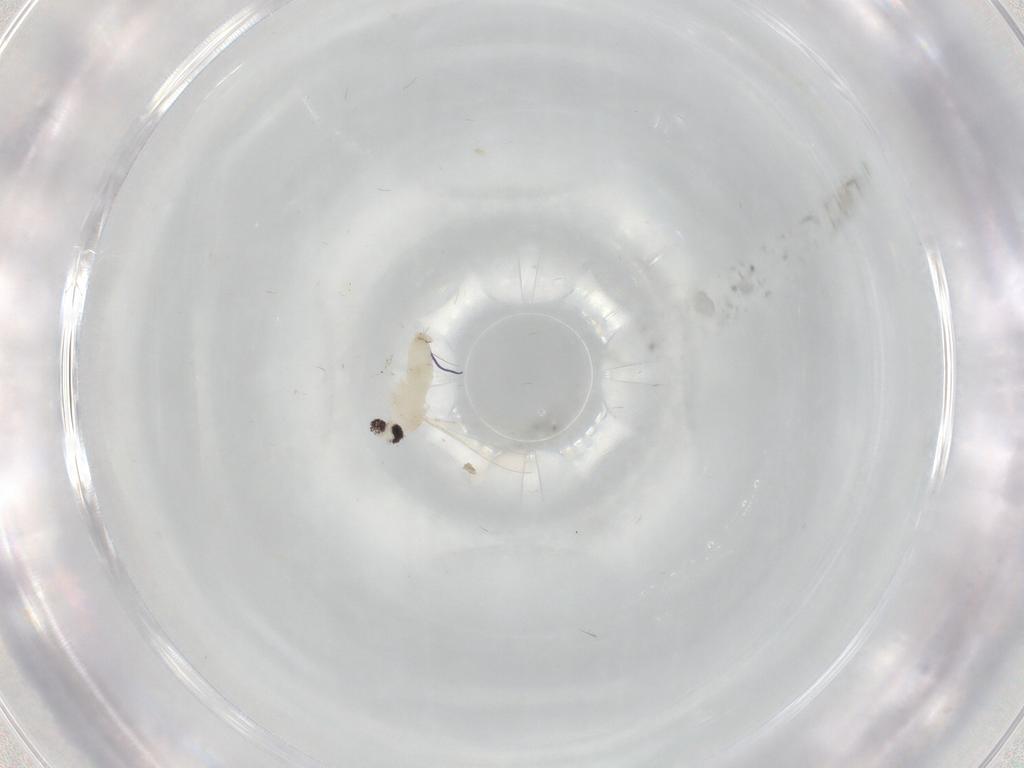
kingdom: Animalia
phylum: Arthropoda
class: Insecta
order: Diptera
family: Cecidomyiidae
